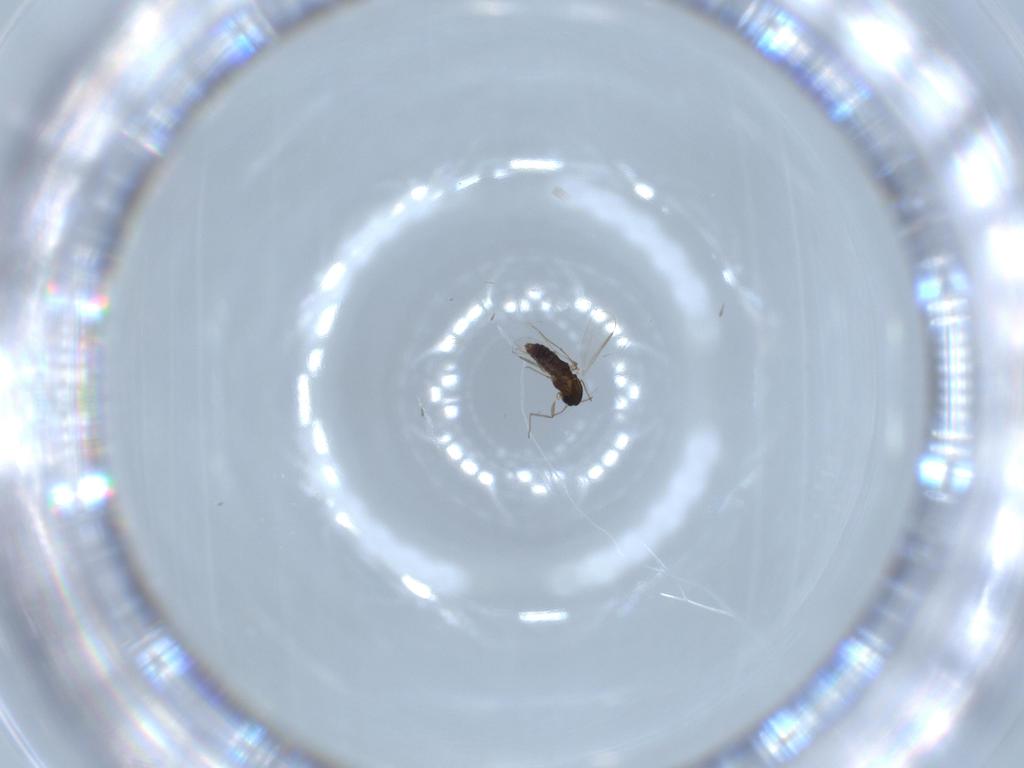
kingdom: Animalia
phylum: Arthropoda
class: Insecta
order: Diptera
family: Chironomidae
